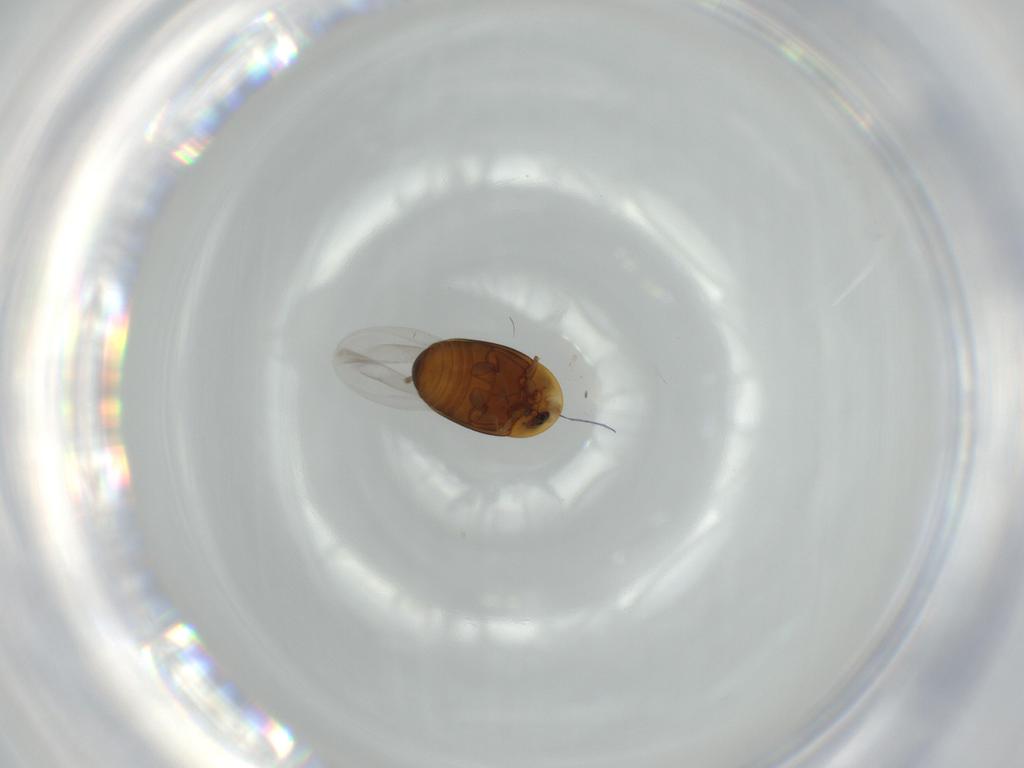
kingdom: Animalia
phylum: Arthropoda
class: Insecta
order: Coleoptera
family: Corylophidae
